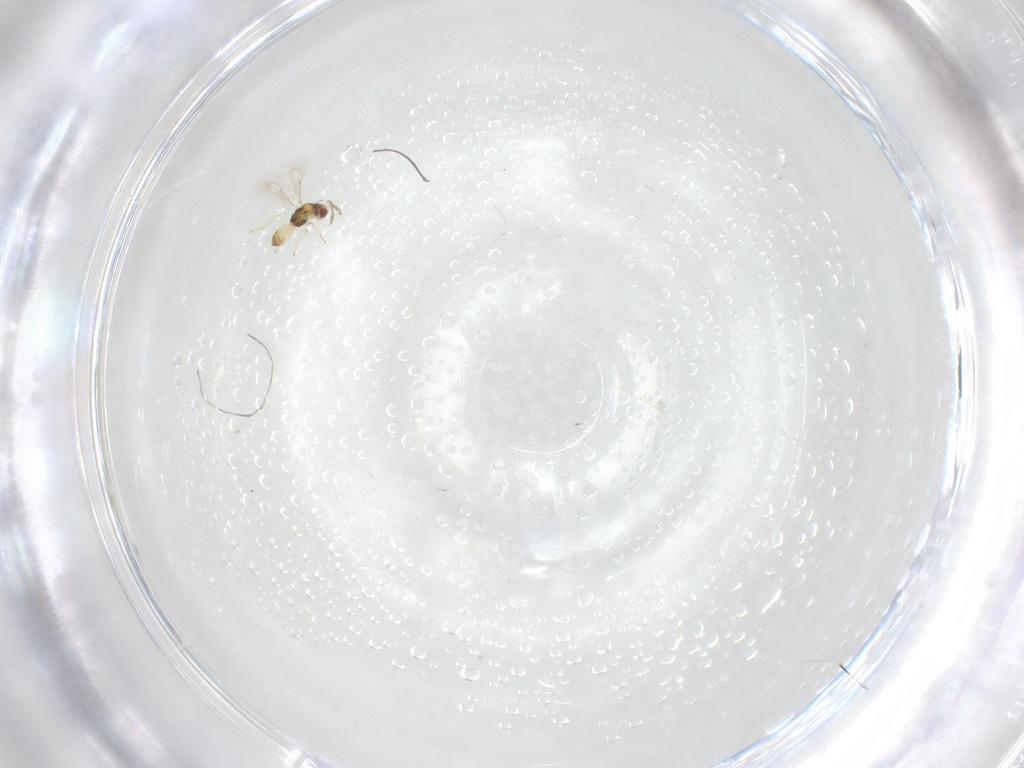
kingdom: Animalia
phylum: Arthropoda
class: Insecta
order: Hymenoptera
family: Eulophidae
